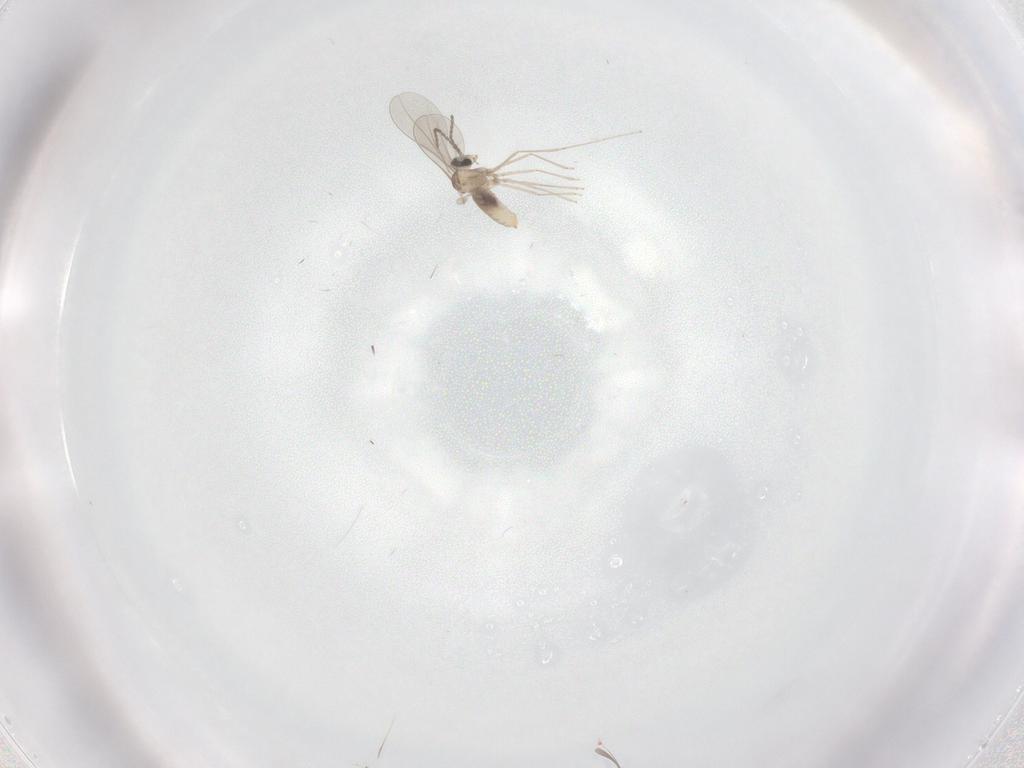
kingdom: Animalia
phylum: Arthropoda
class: Insecta
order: Diptera
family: Cecidomyiidae
